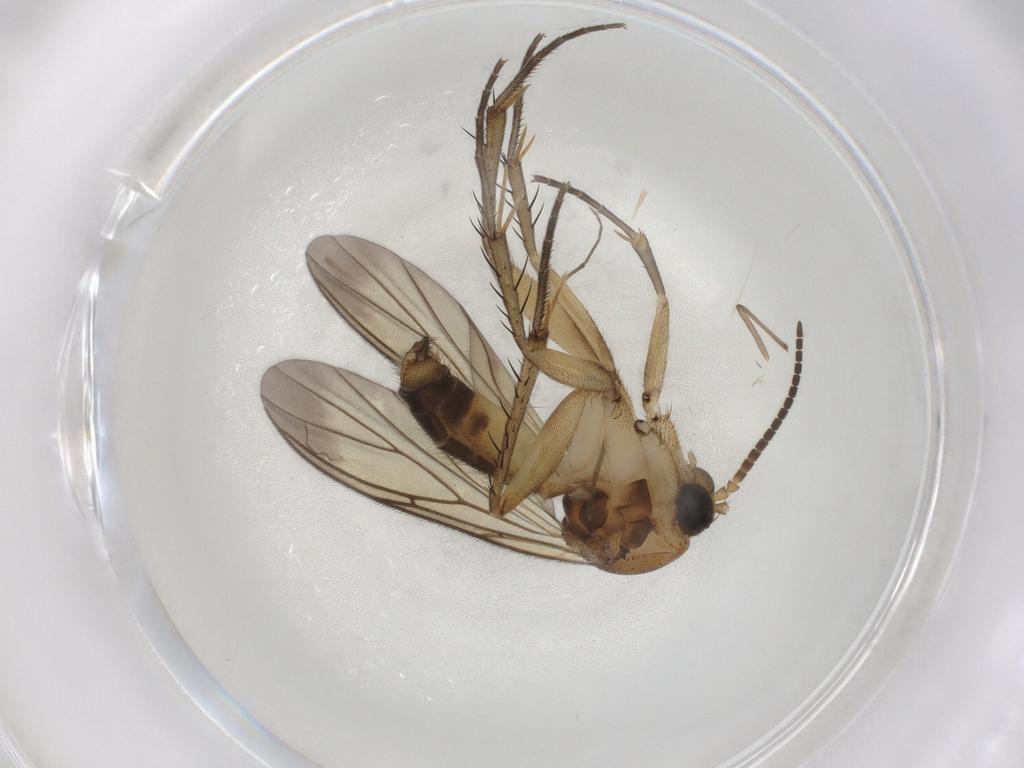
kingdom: Animalia
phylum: Arthropoda
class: Insecta
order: Diptera
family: Mycetophilidae
